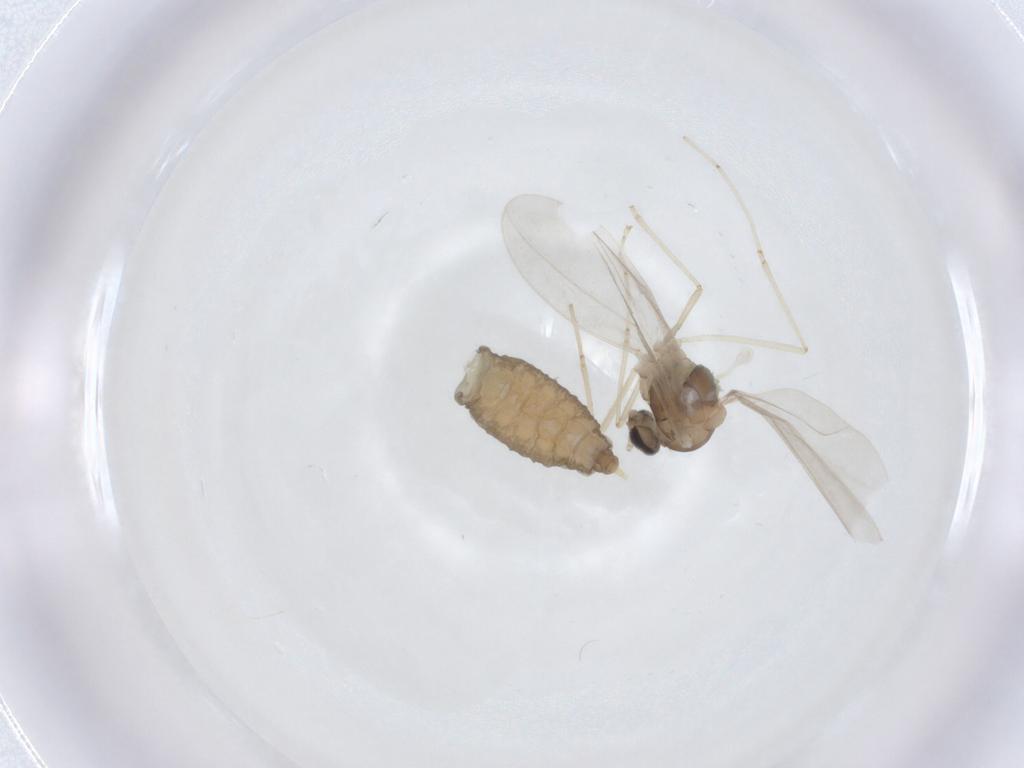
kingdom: Animalia
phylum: Arthropoda
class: Insecta
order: Diptera
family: Cecidomyiidae
